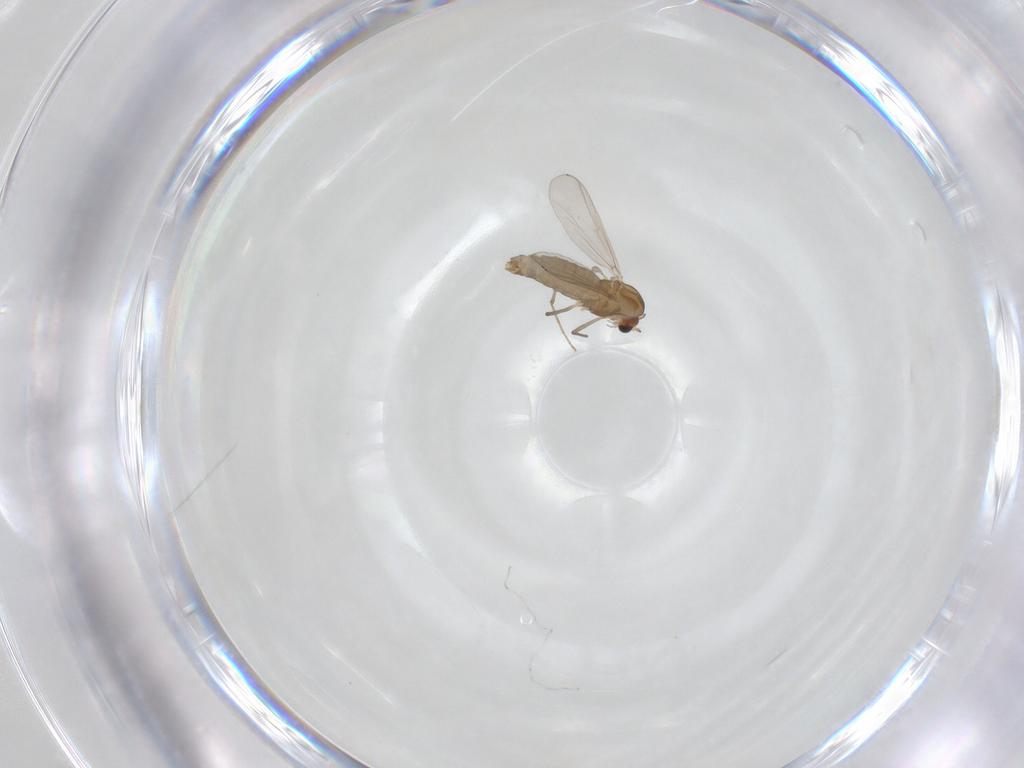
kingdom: Animalia
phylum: Arthropoda
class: Insecta
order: Diptera
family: Chironomidae
